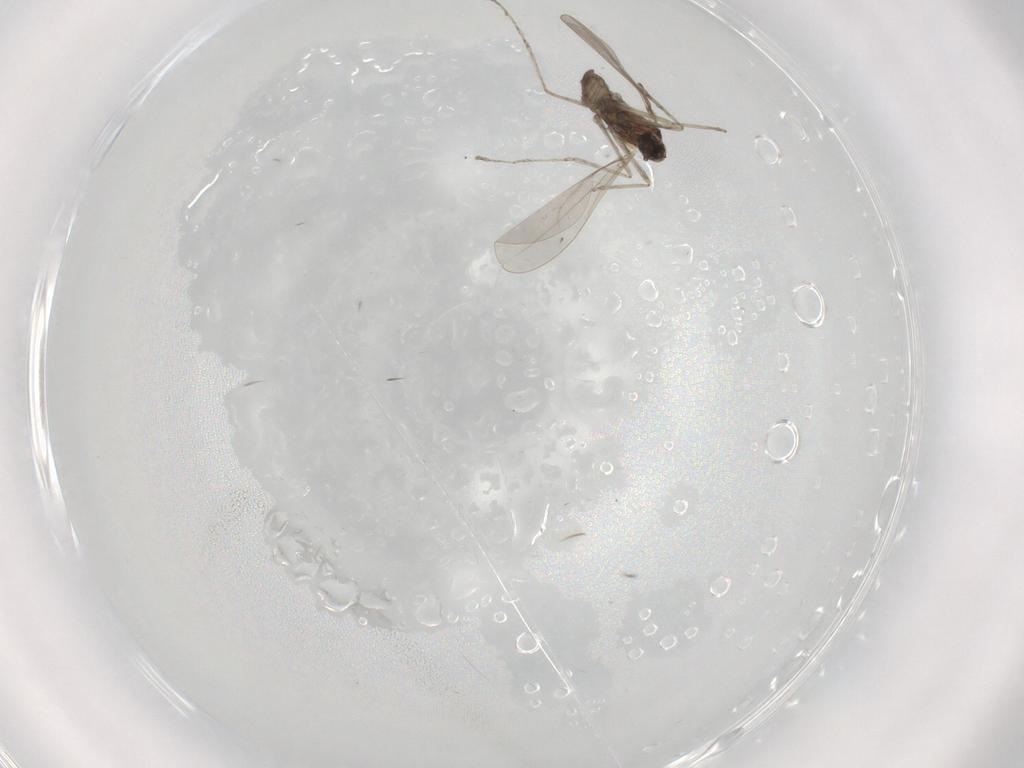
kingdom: Animalia
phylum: Arthropoda
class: Insecta
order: Diptera
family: Cecidomyiidae
